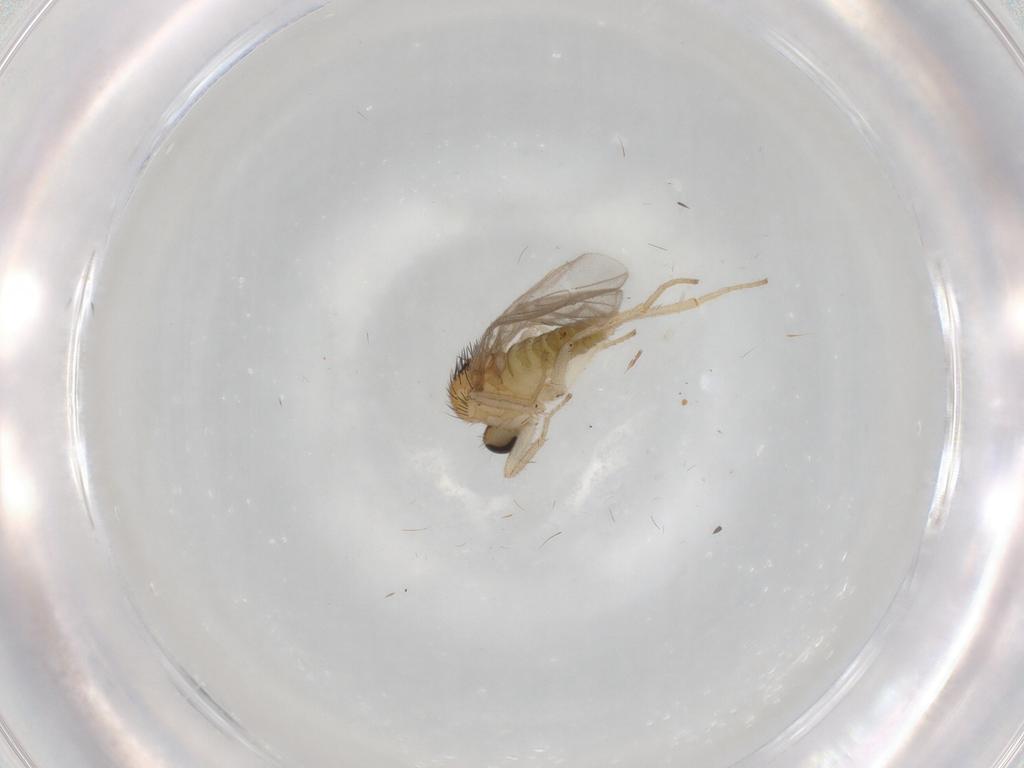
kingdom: Animalia
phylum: Arthropoda
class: Insecta
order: Diptera
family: Hybotidae
